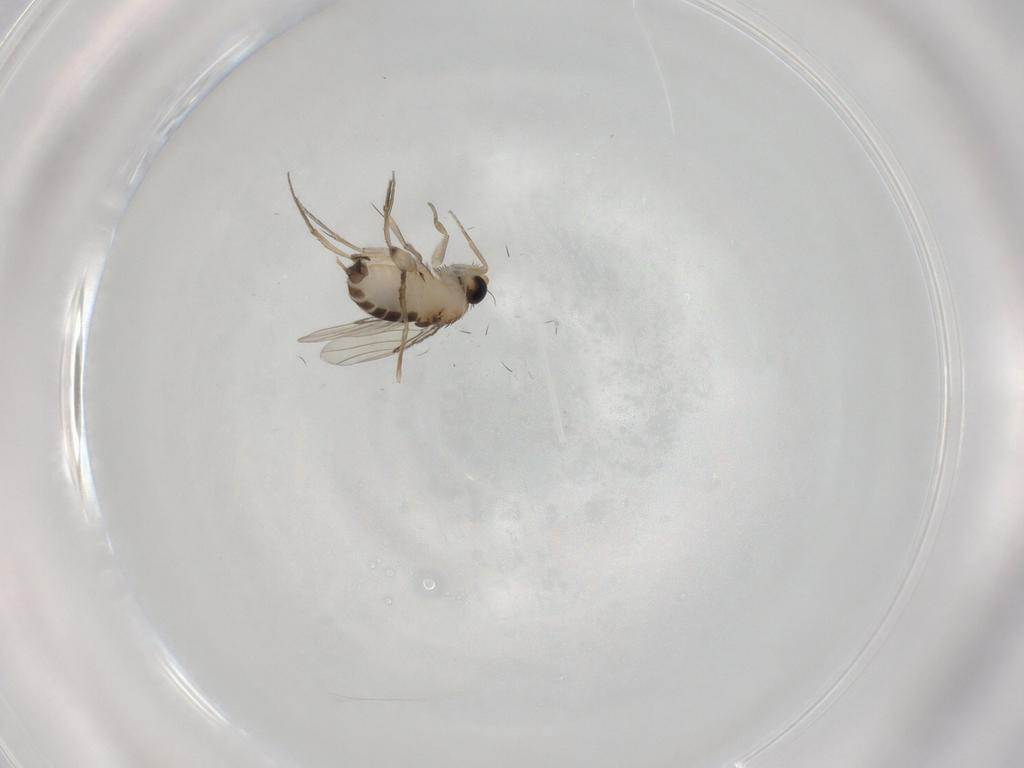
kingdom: Animalia
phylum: Arthropoda
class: Insecta
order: Diptera
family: Phoridae
